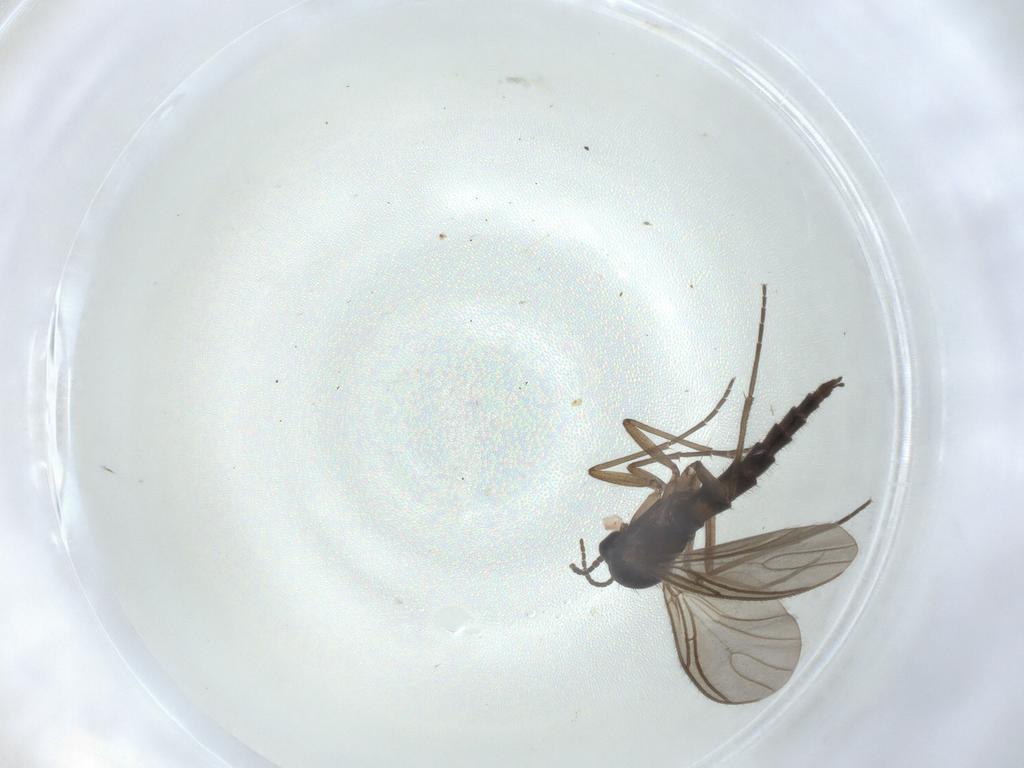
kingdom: Animalia
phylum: Arthropoda
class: Insecta
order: Diptera
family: Sciaridae
